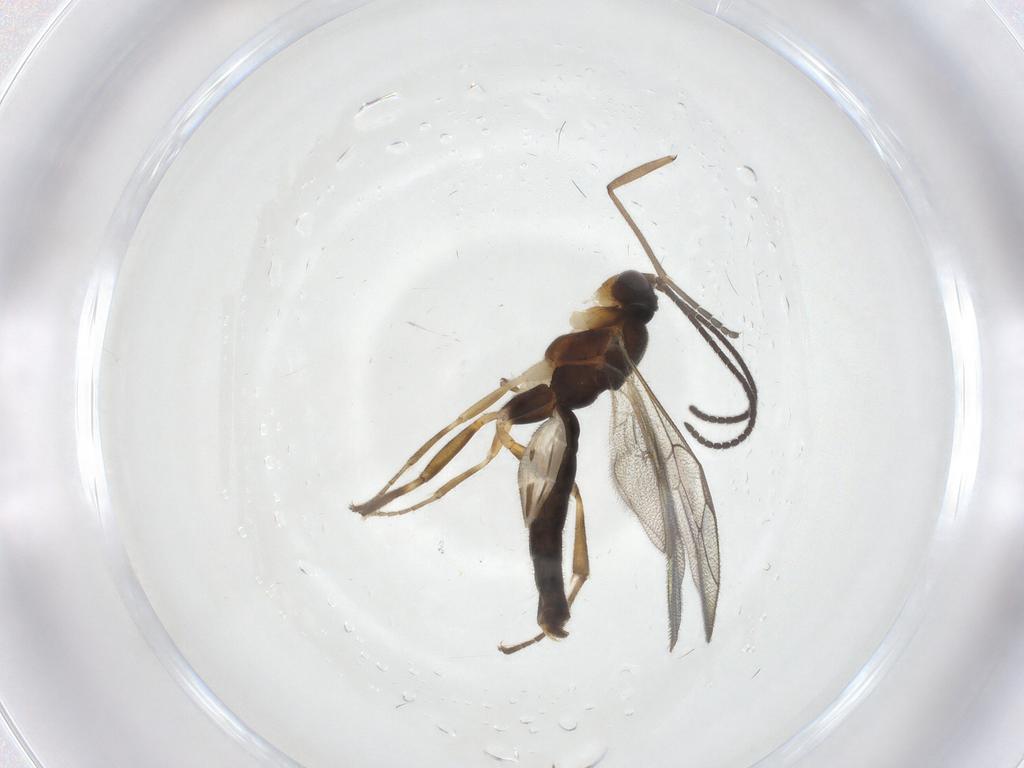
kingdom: Animalia
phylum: Arthropoda
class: Insecta
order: Hymenoptera
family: Ichneumonidae
